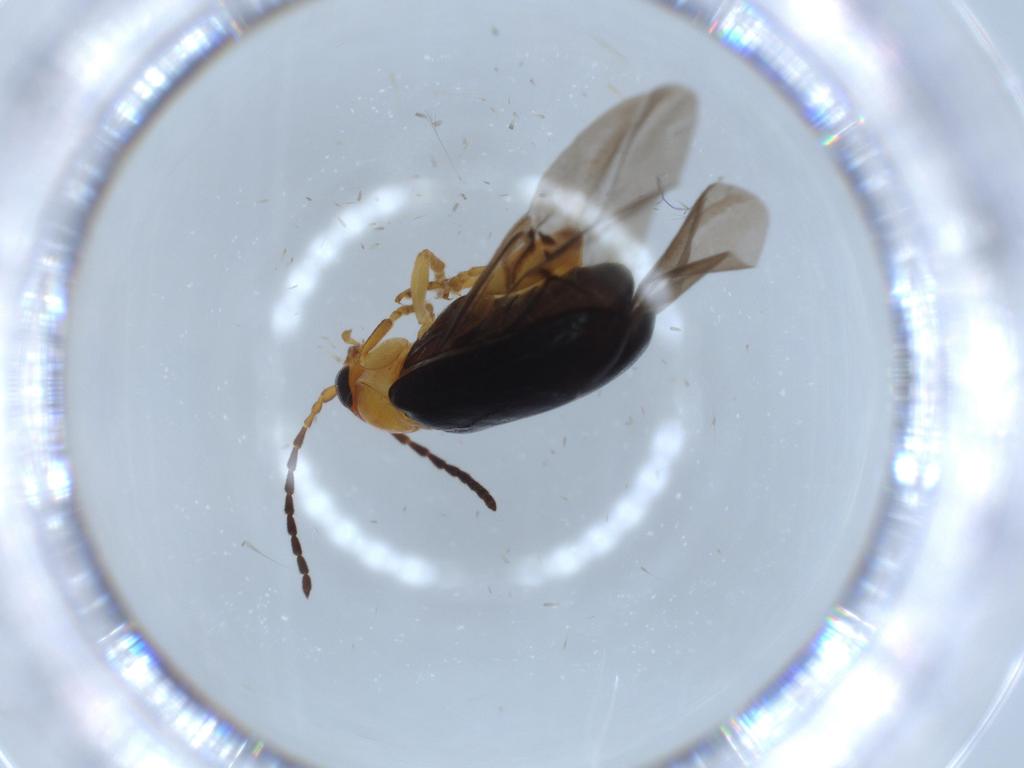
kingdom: Animalia
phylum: Arthropoda
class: Insecta
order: Coleoptera
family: Chrysomelidae
